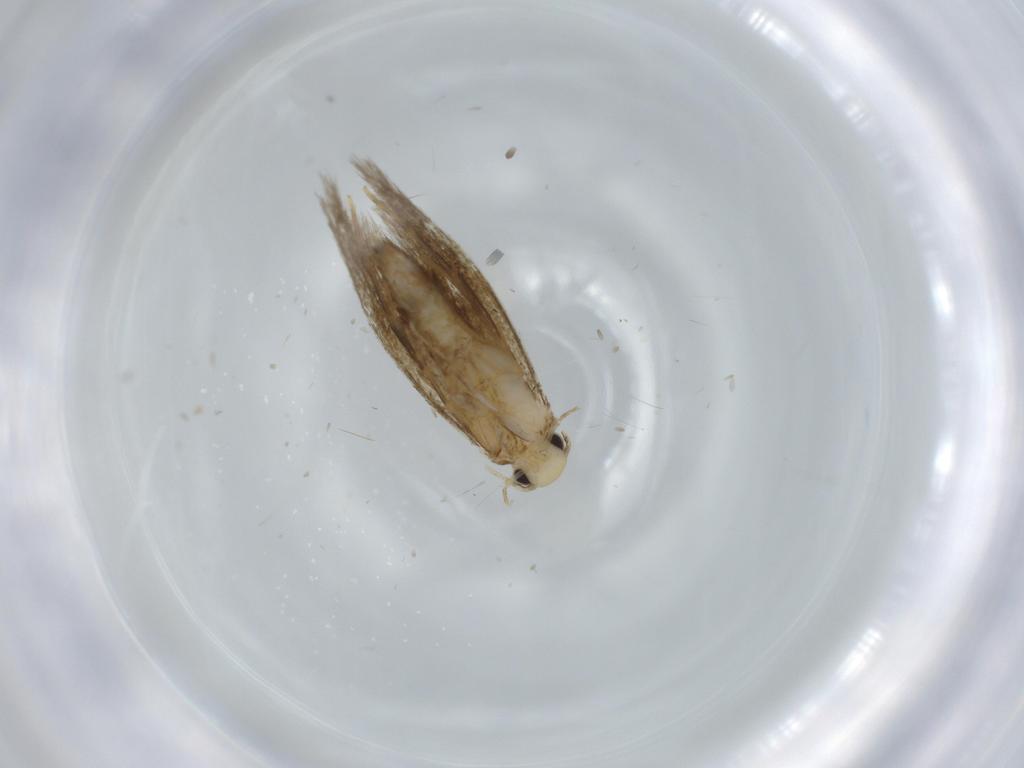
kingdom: Animalia
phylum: Arthropoda
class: Insecta
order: Lepidoptera
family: Tineidae
